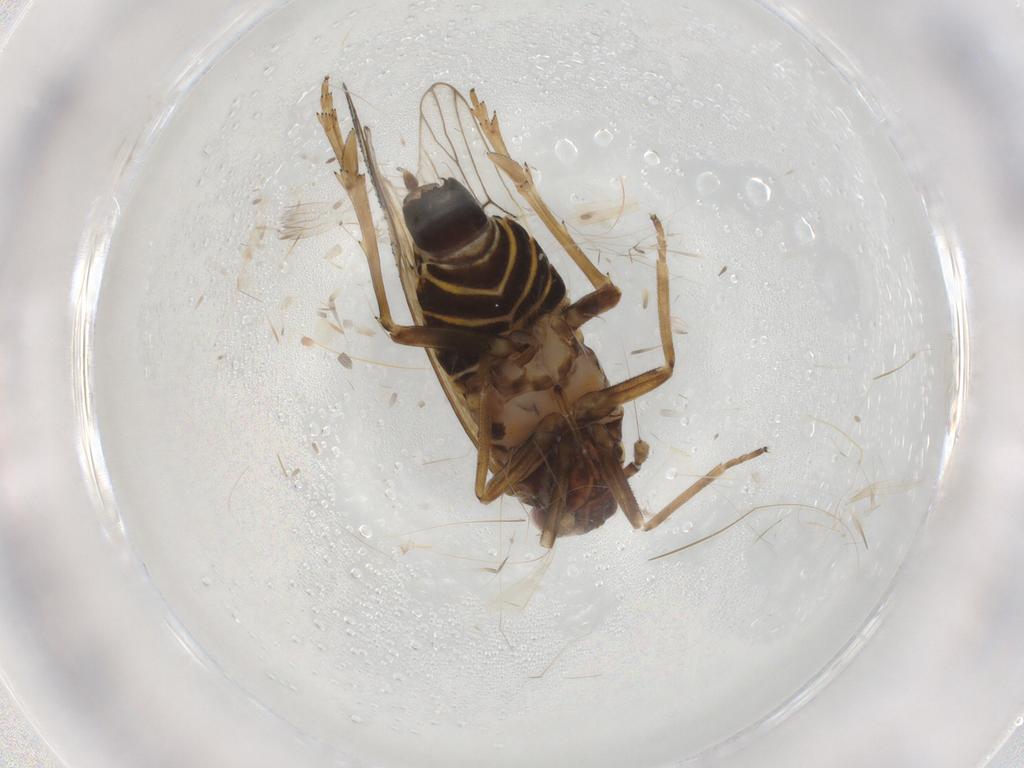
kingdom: Animalia
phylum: Arthropoda
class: Insecta
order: Hemiptera
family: Delphacidae
